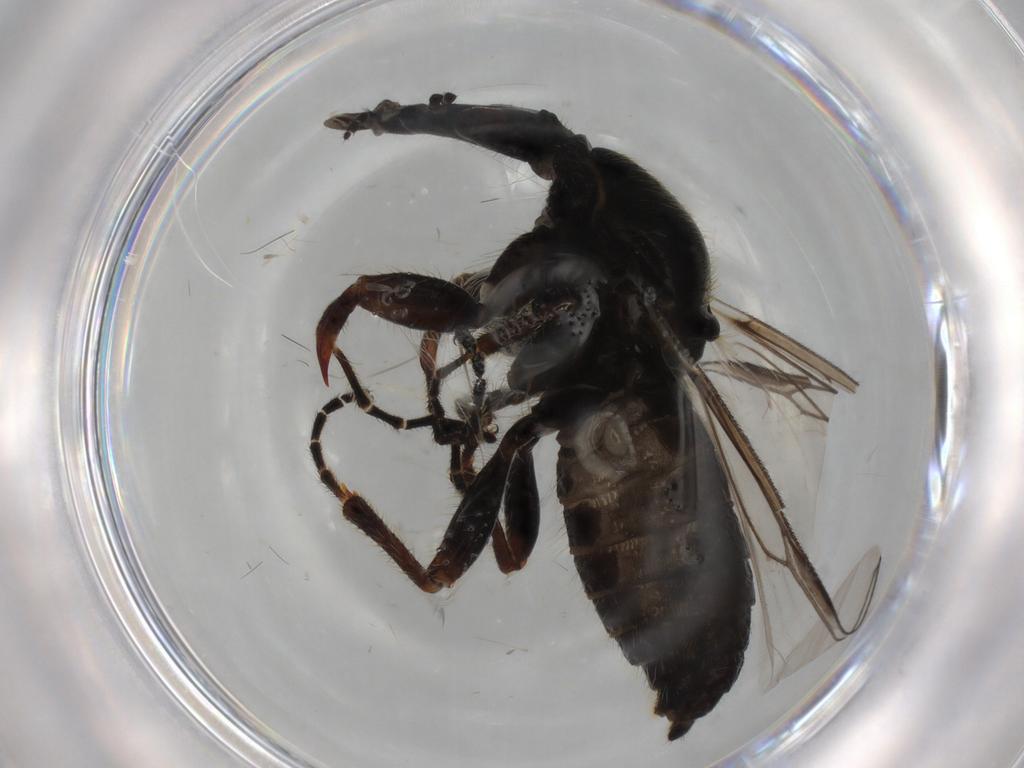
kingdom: Animalia
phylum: Arthropoda
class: Insecta
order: Diptera
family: Bibionidae
